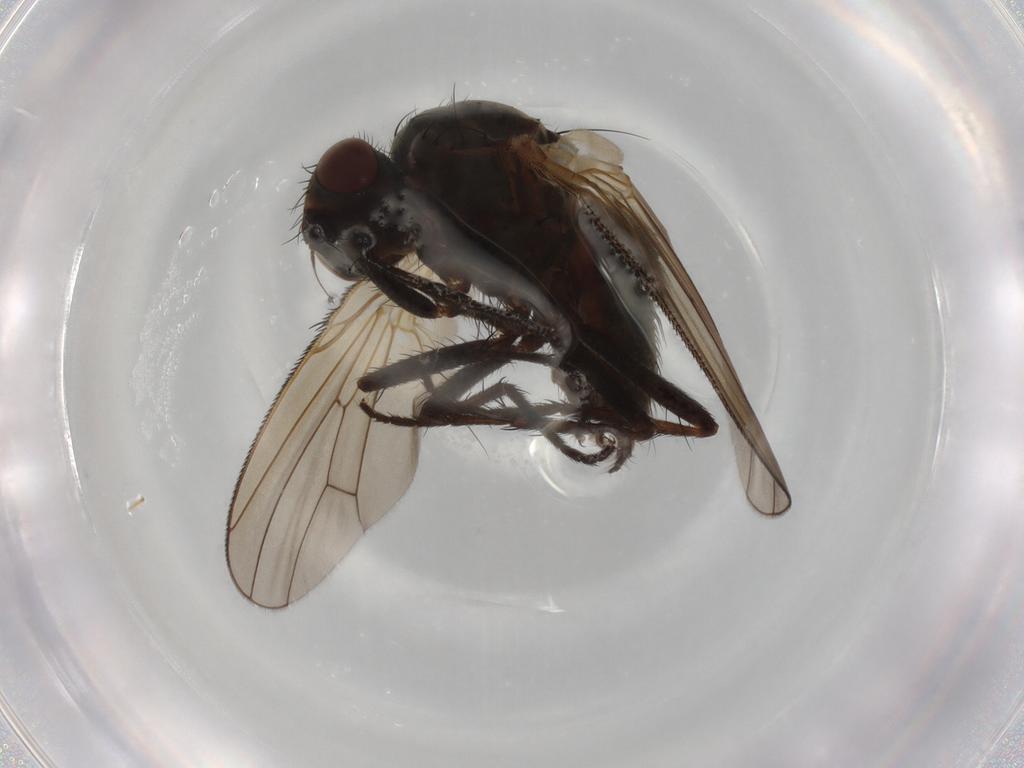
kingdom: Animalia
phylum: Arthropoda
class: Insecta
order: Diptera
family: Anthomyiidae
